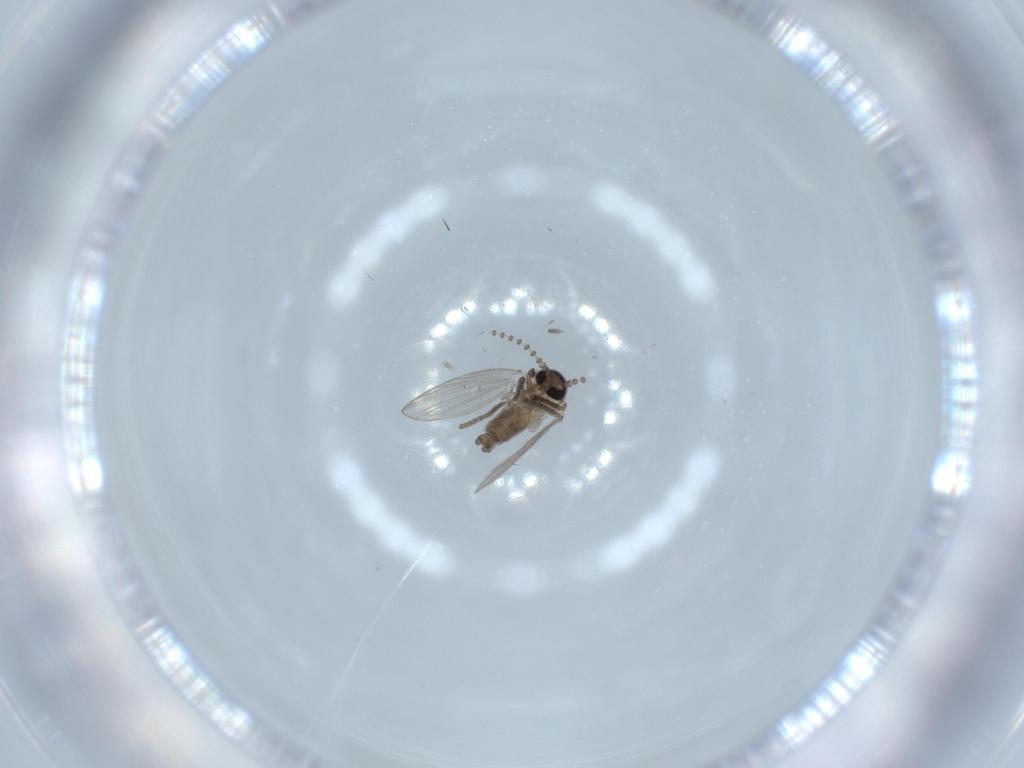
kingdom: Animalia
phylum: Arthropoda
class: Insecta
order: Diptera
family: Psychodidae
